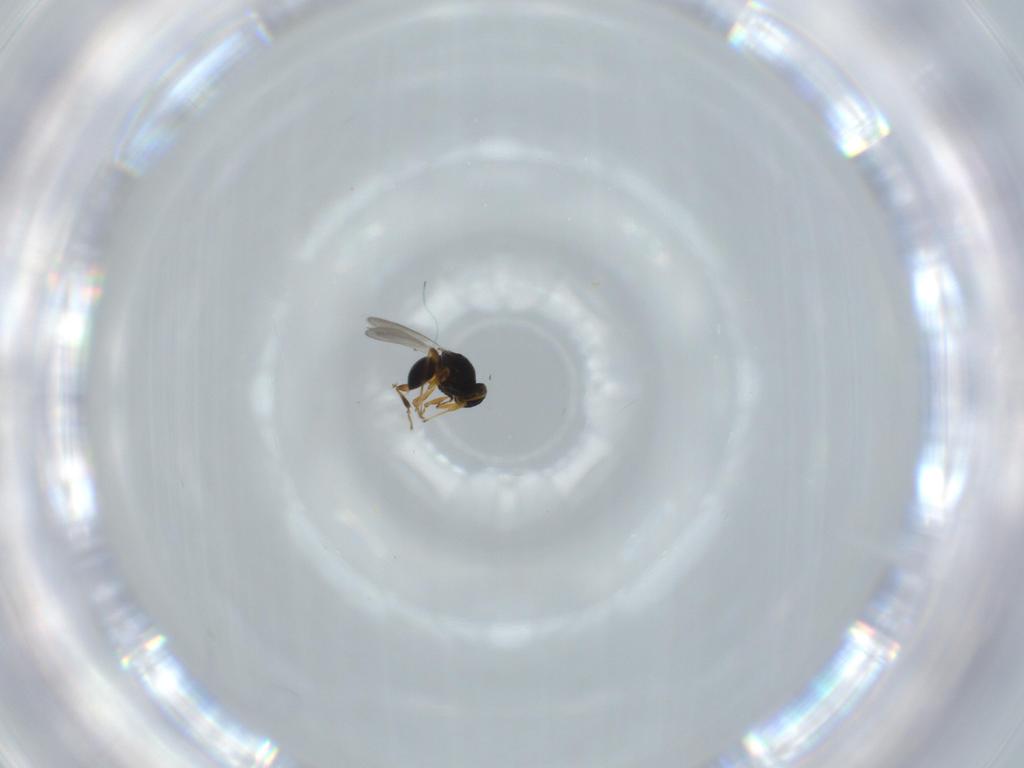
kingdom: Animalia
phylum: Arthropoda
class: Insecta
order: Hymenoptera
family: Platygastridae
